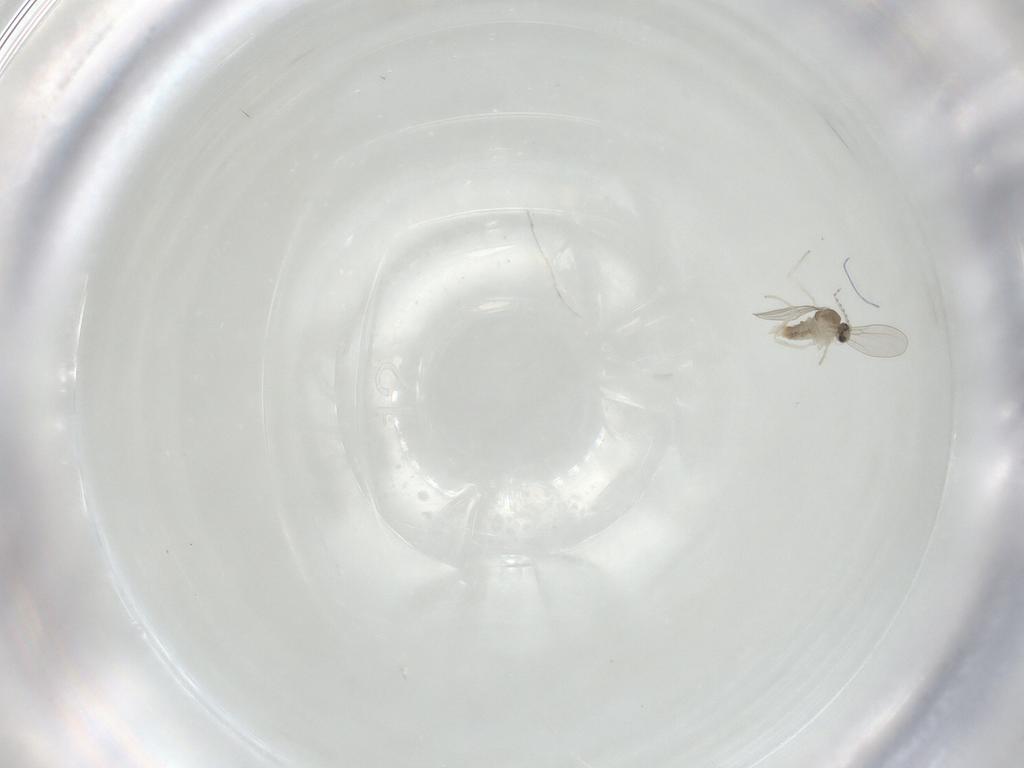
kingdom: Animalia
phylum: Arthropoda
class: Insecta
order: Diptera
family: Cecidomyiidae
